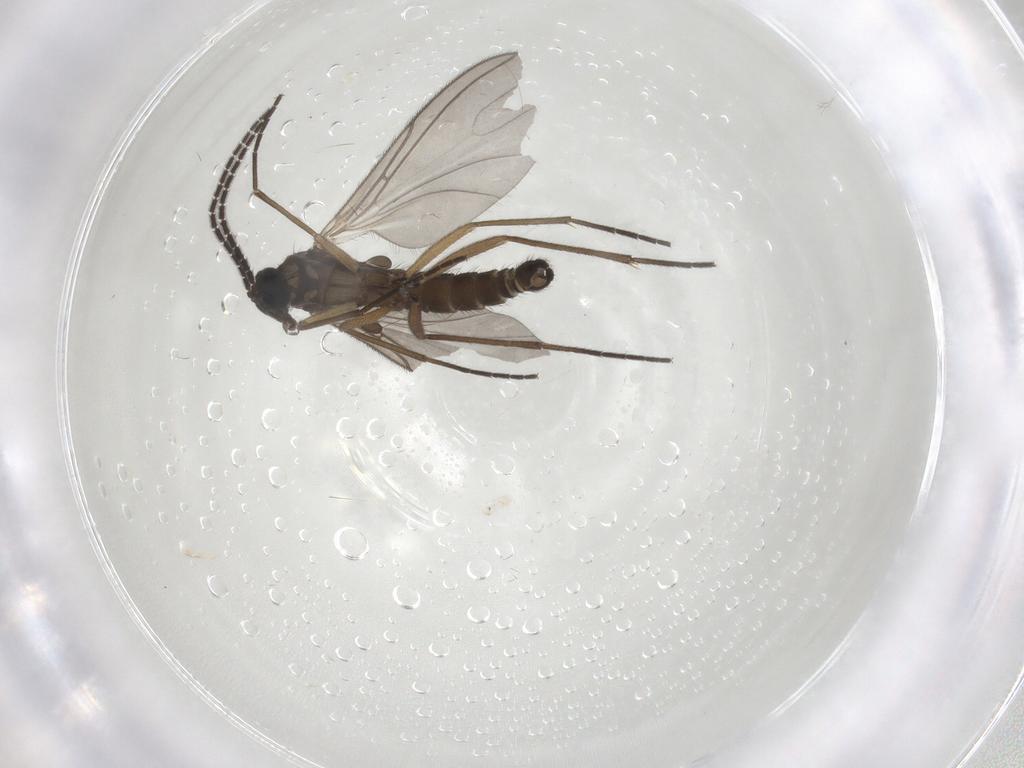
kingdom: Animalia
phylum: Arthropoda
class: Insecta
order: Diptera
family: Sciaridae
